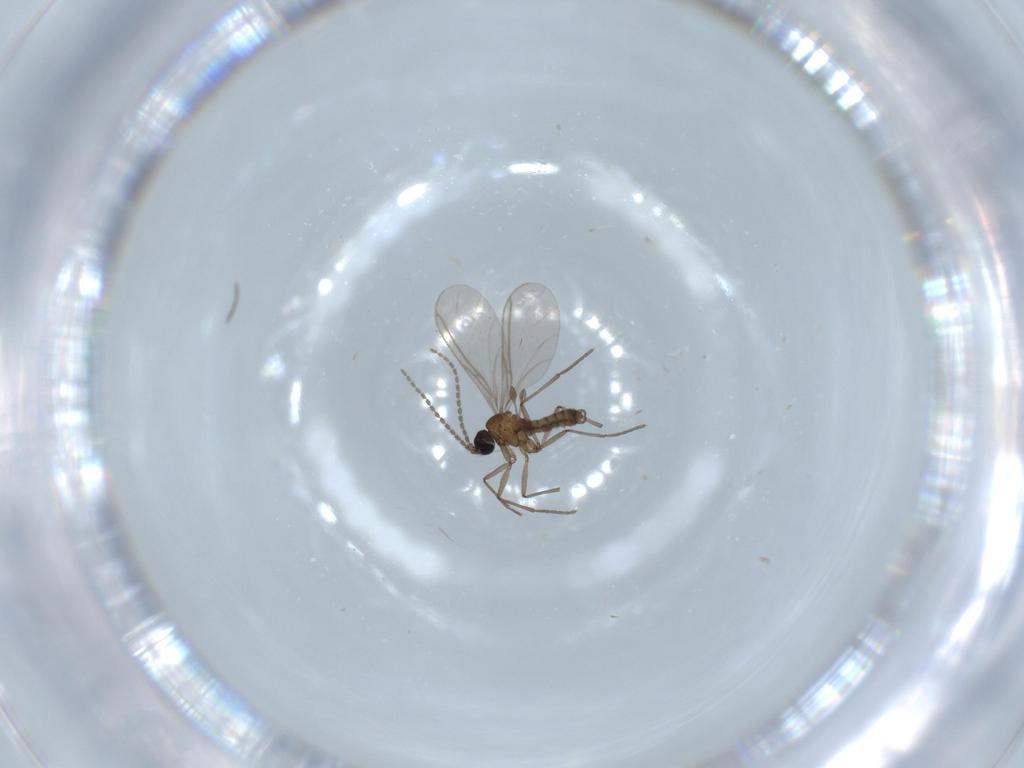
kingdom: Animalia
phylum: Arthropoda
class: Insecta
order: Diptera
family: Sciaridae
